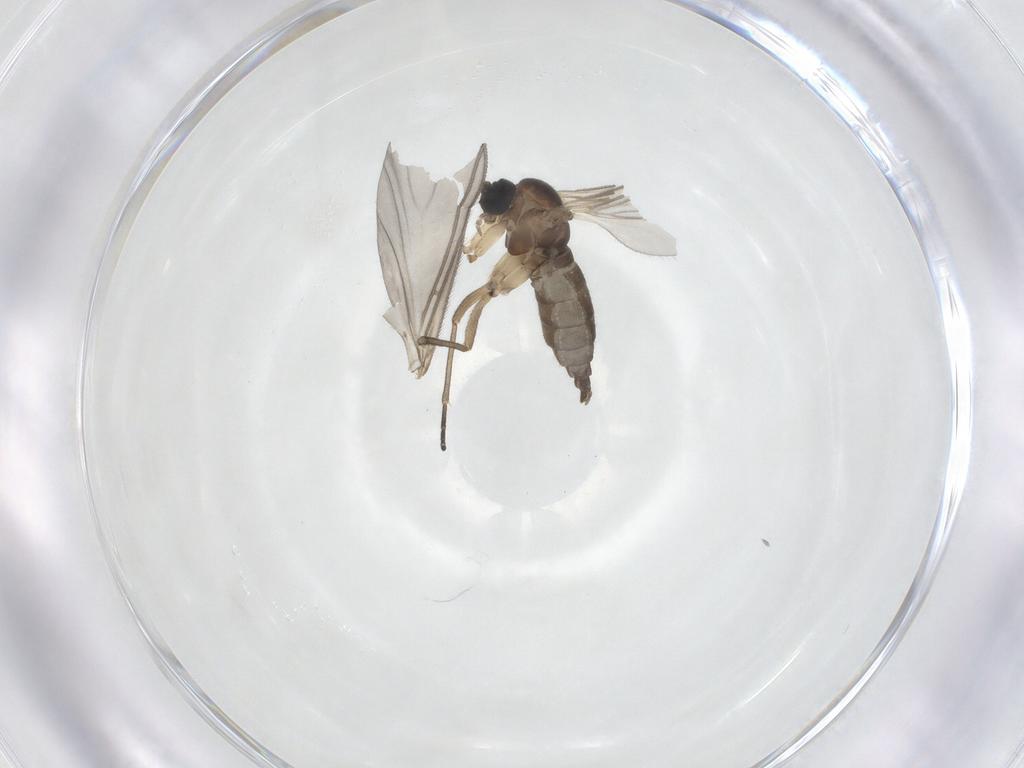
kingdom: Animalia
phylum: Arthropoda
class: Insecta
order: Diptera
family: Sciaridae
